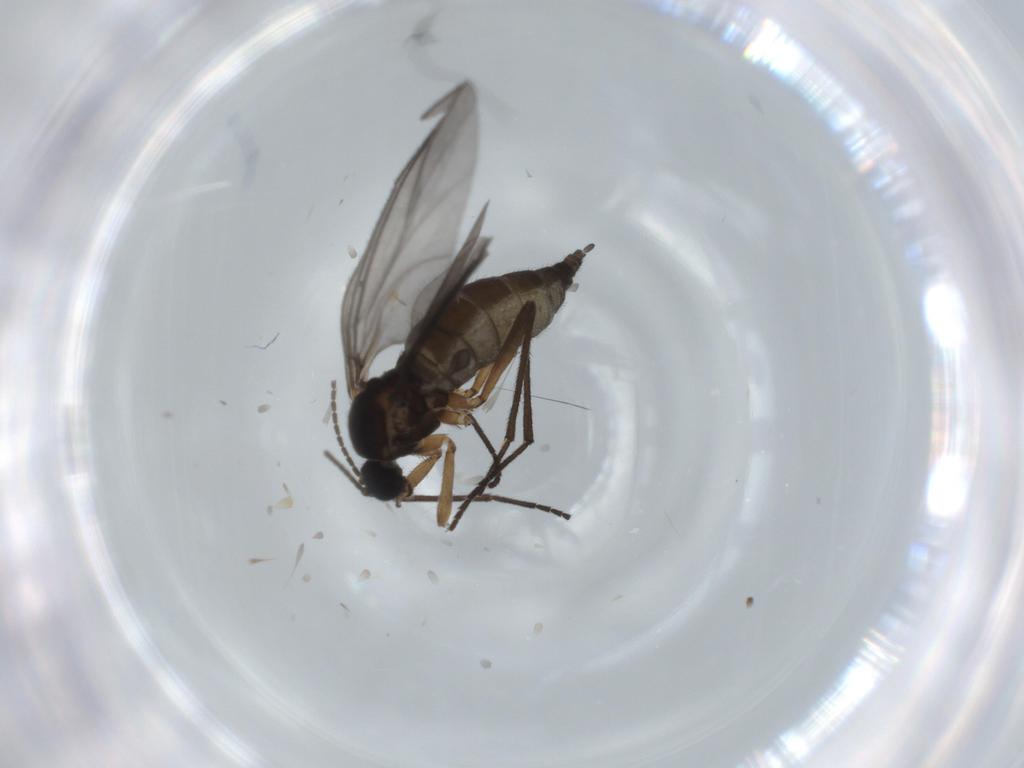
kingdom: Animalia
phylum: Arthropoda
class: Insecta
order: Diptera
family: Sciaridae
